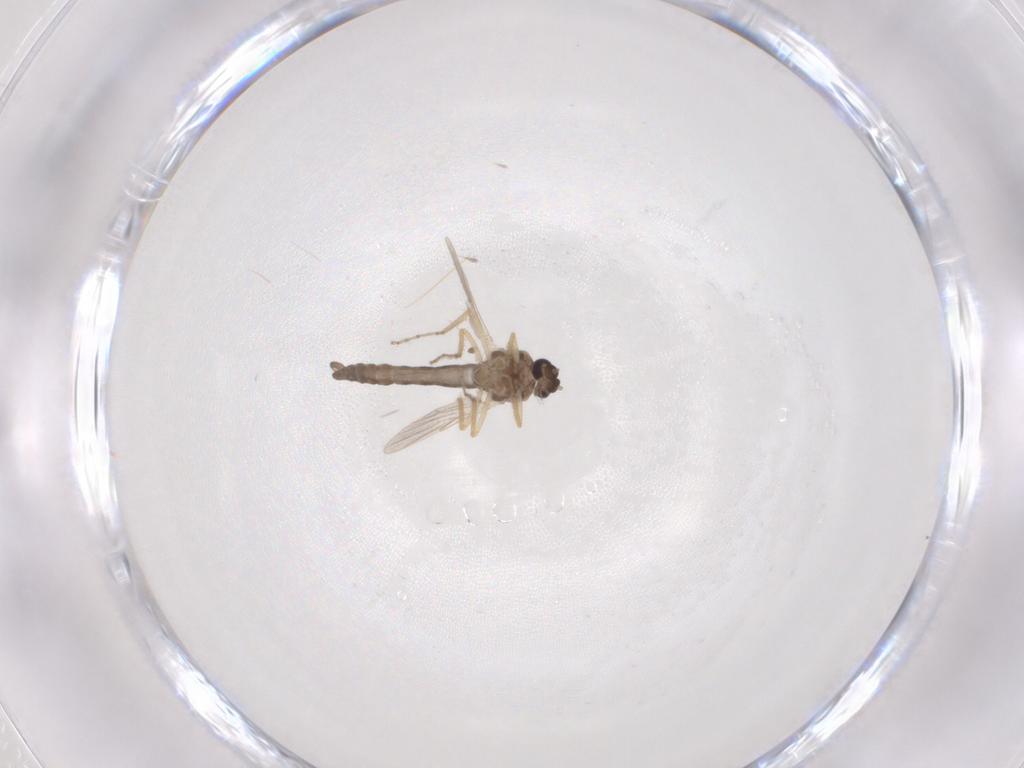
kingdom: Animalia
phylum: Arthropoda
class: Insecta
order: Diptera
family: Ceratopogonidae
